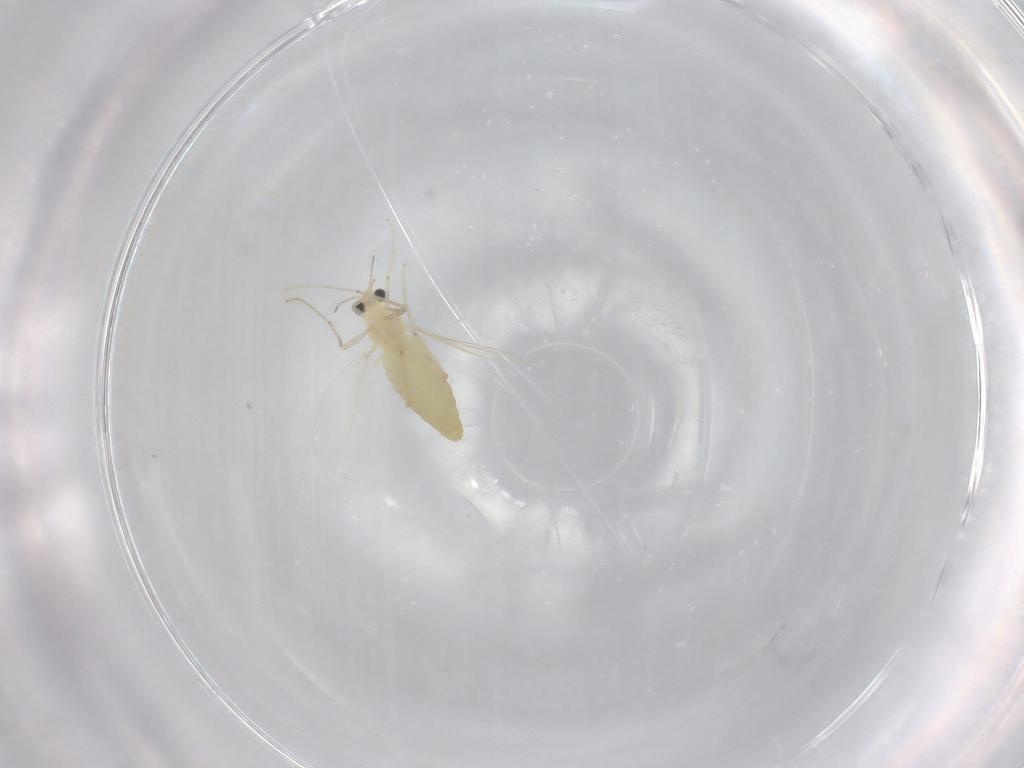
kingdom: Animalia
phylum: Arthropoda
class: Insecta
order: Diptera
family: Chironomidae
